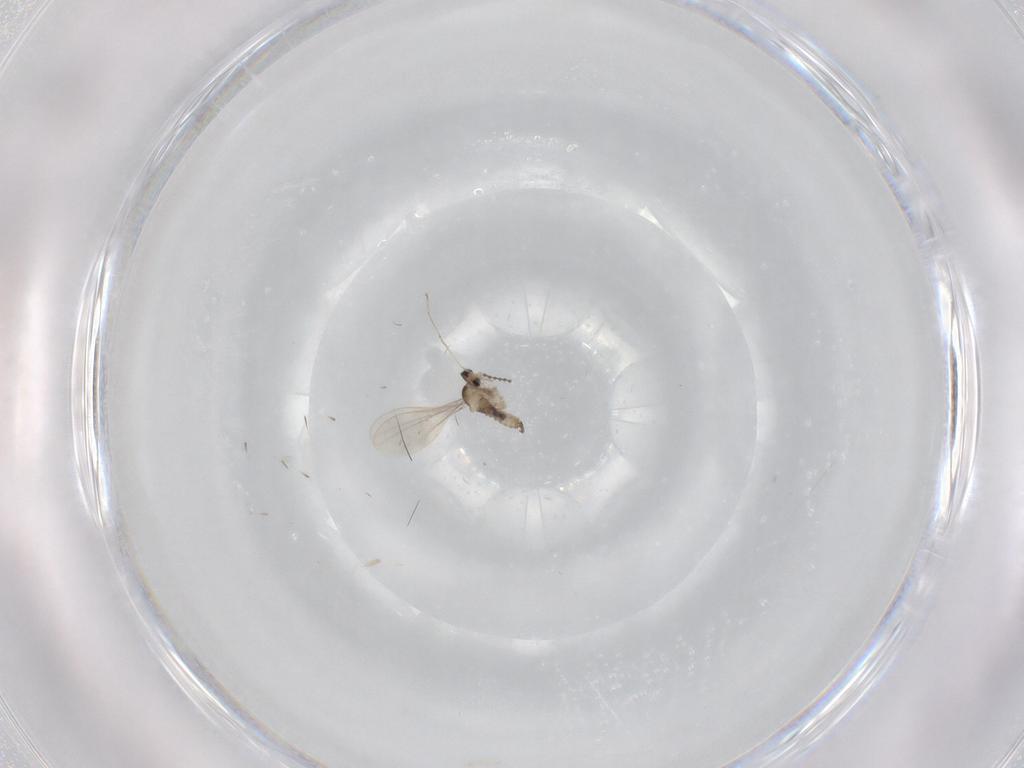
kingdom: Animalia
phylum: Arthropoda
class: Insecta
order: Diptera
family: Cecidomyiidae
